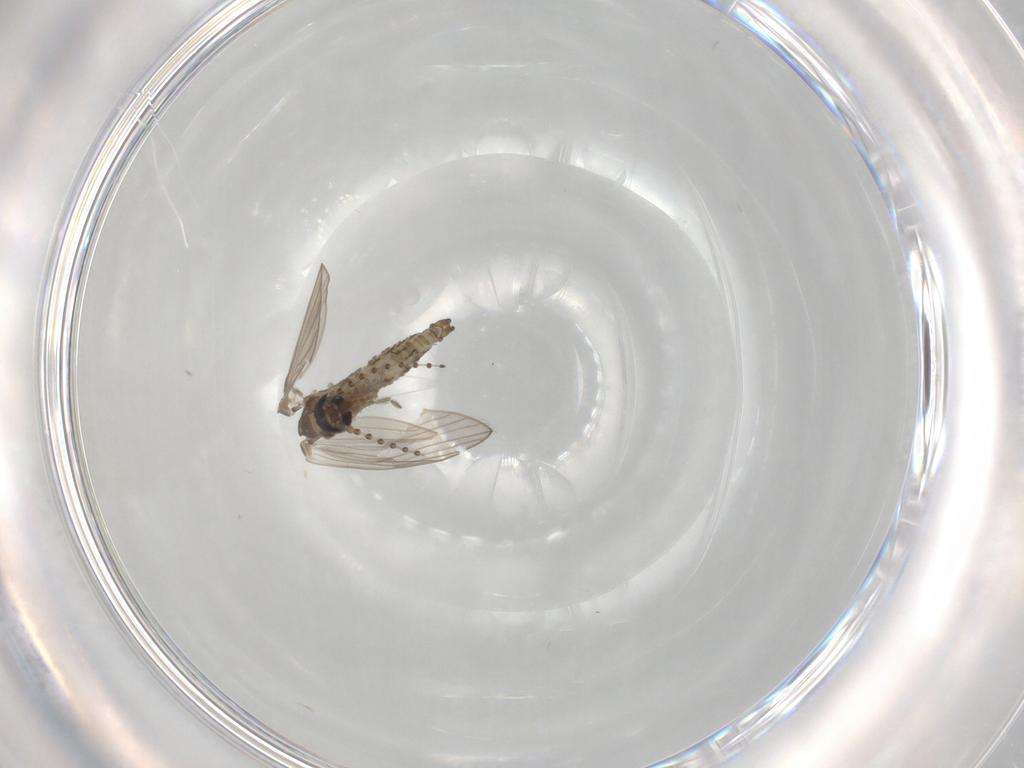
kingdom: Animalia
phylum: Arthropoda
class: Insecta
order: Diptera
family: Psychodidae
